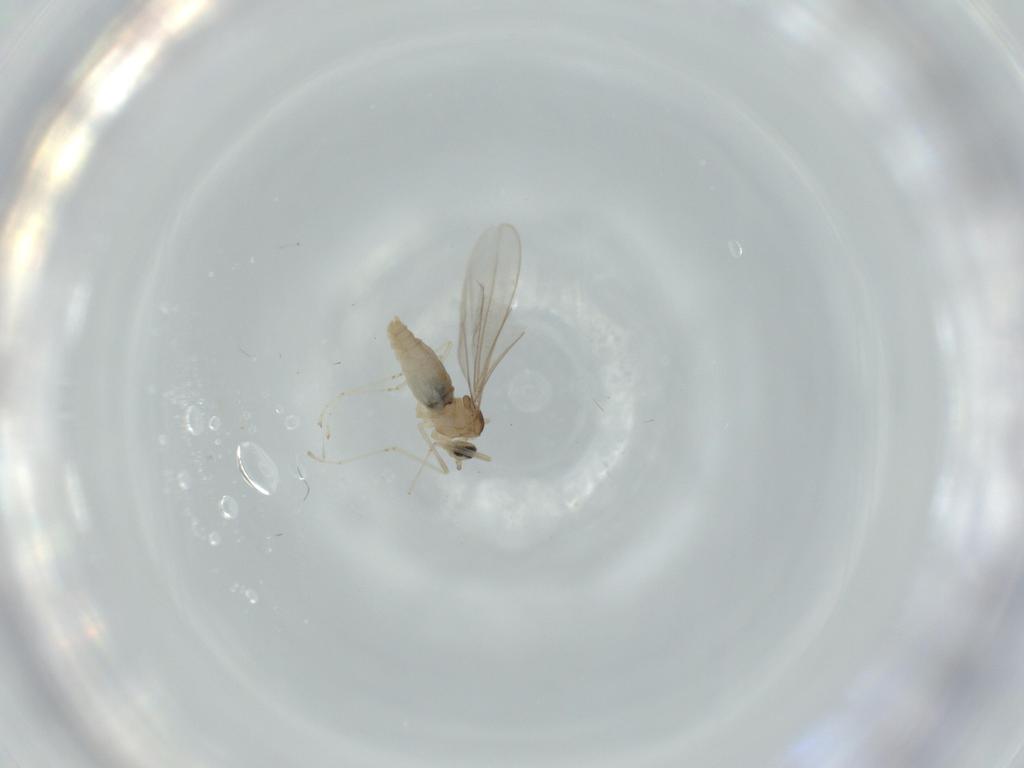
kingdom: Animalia
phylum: Arthropoda
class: Insecta
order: Diptera
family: Cecidomyiidae
